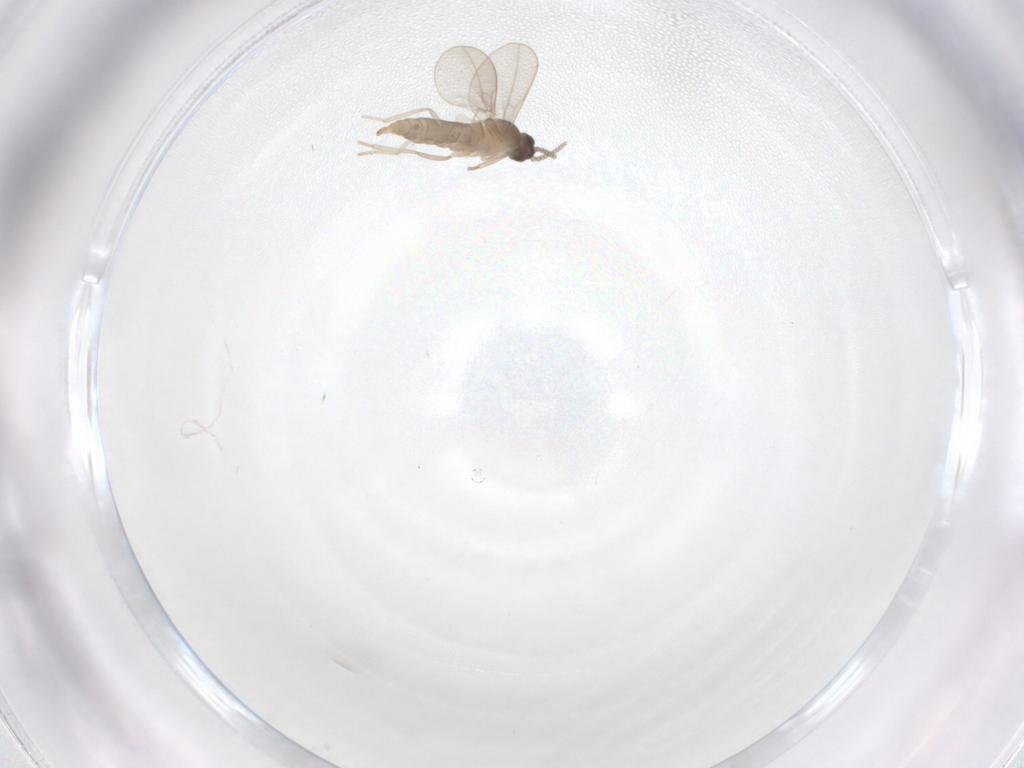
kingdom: Animalia
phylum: Arthropoda
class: Insecta
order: Diptera
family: Cecidomyiidae
